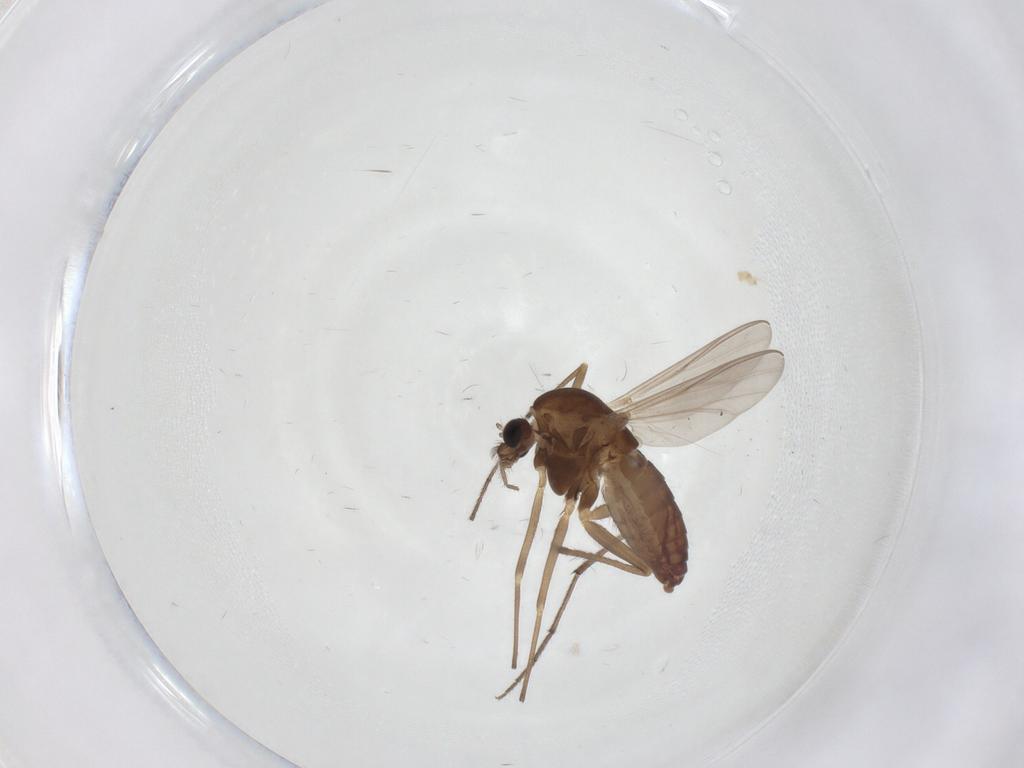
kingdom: Animalia
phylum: Arthropoda
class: Insecta
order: Diptera
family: Chironomidae
